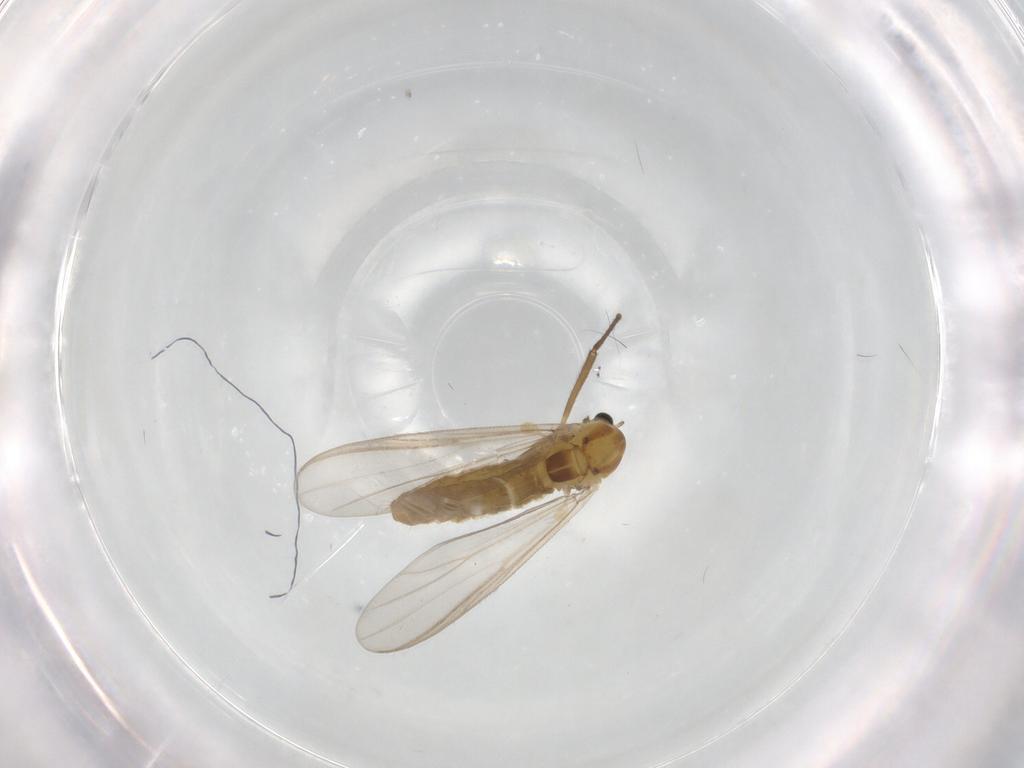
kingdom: Animalia
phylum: Arthropoda
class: Insecta
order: Diptera
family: Chironomidae
